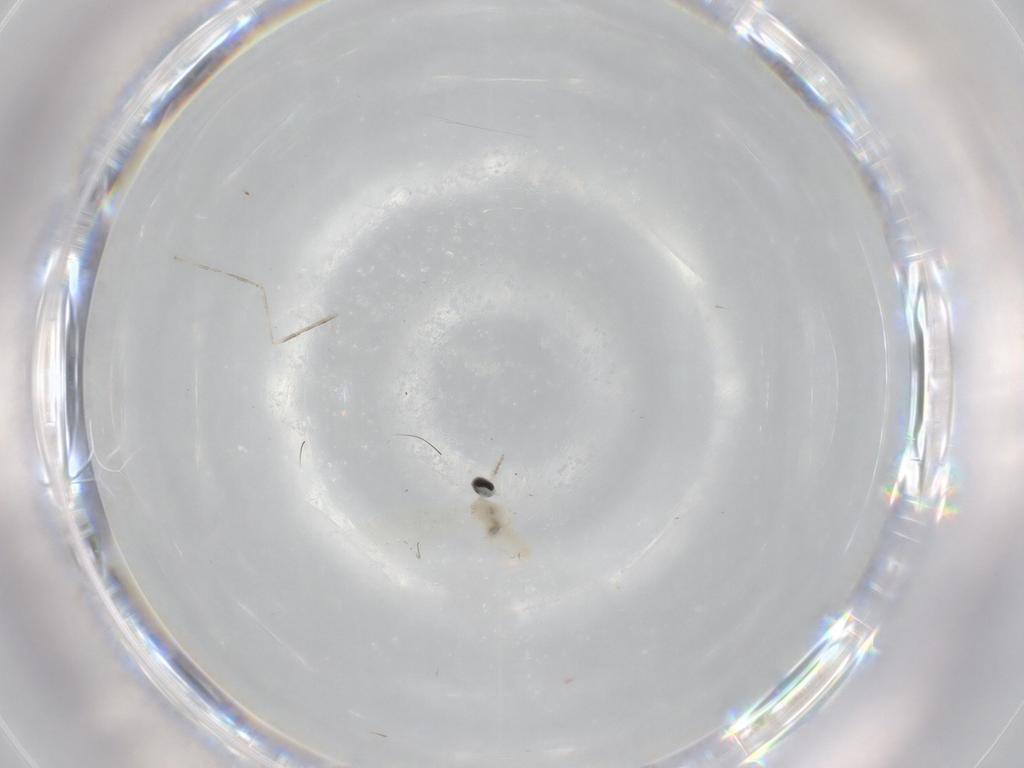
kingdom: Animalia
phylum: Arthropoda
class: Insecta
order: Diptera
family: Cecidomyiidae
